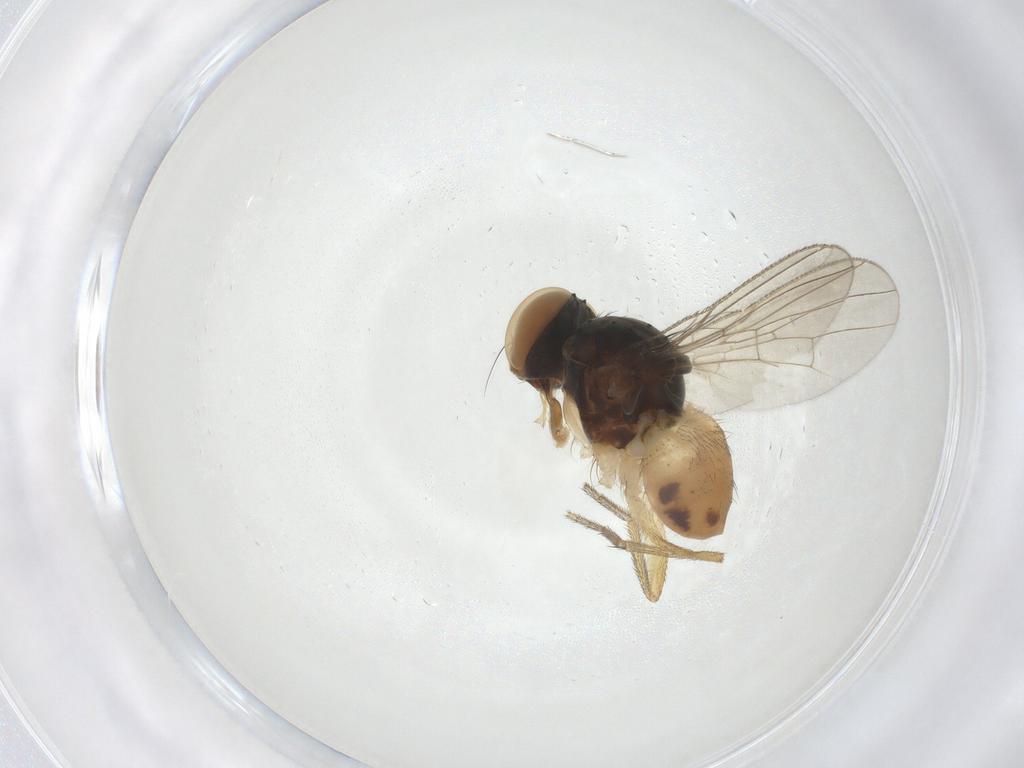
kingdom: Animalia
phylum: Arthropoda
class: Insecta
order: Diptera
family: Muscidae
